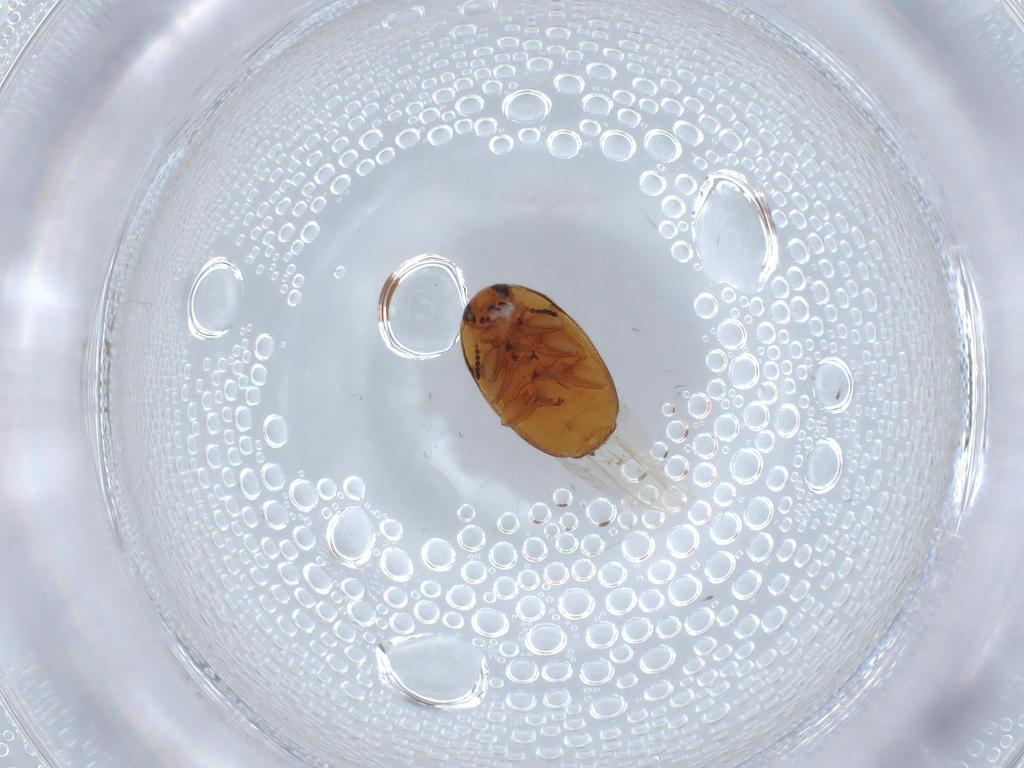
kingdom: Animalia
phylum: Arthropoda
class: Insecta
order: Coleoptera
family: Chrysomelidae
